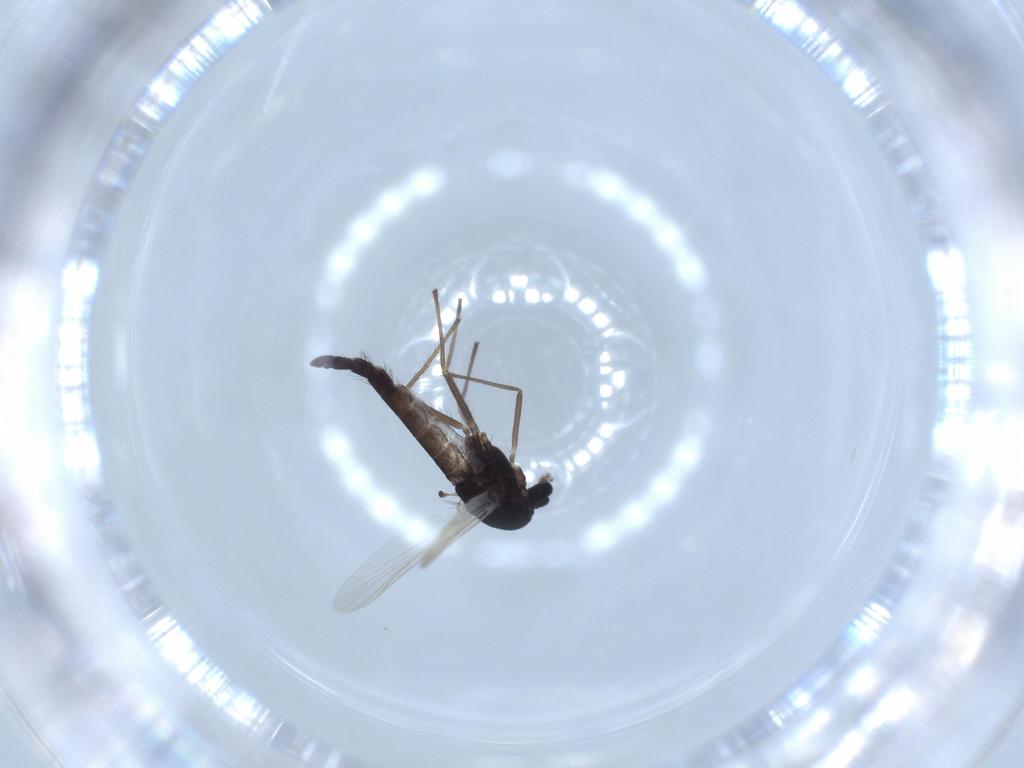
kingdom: Animalia
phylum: Arthropoda
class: Insecta
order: Diptera
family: Chironomidae
